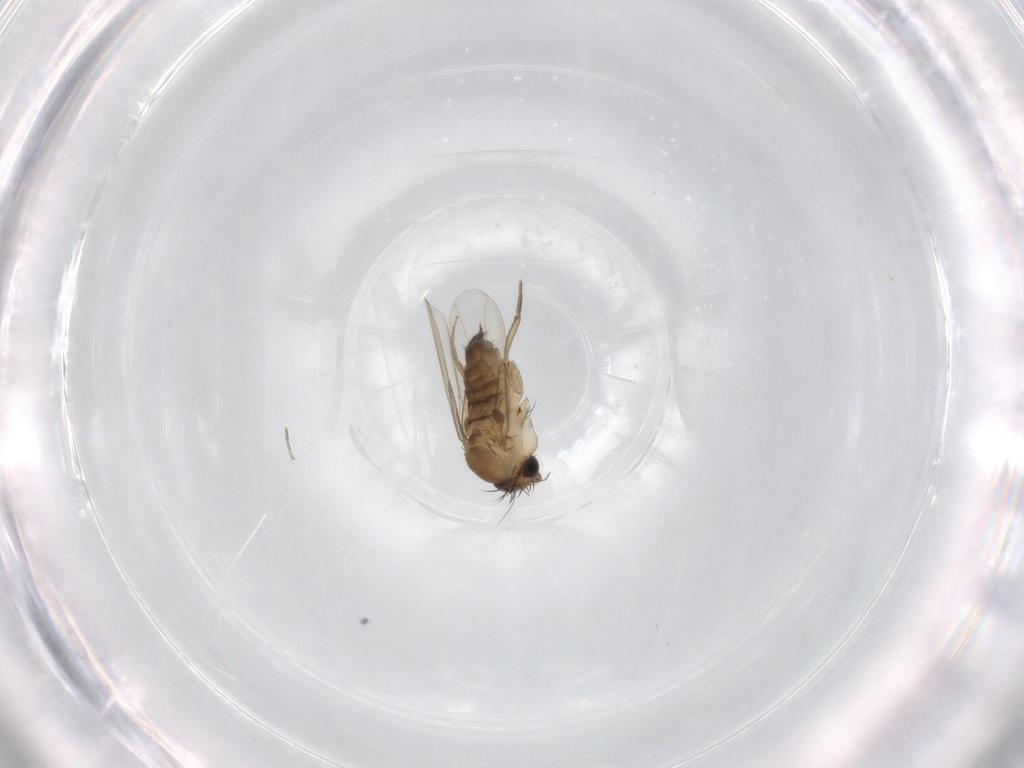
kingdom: Animalia
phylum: Arthropoda
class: Insecta
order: Diptera
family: Phoridae
